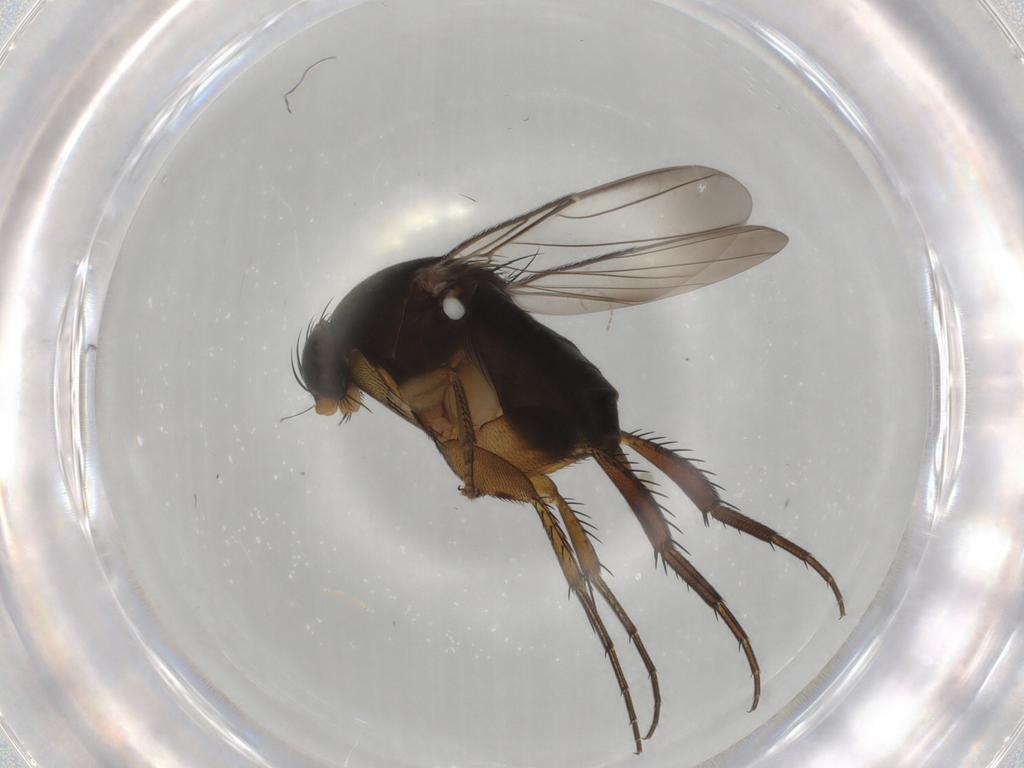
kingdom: Animalia
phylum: Arthropoda
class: Insecta
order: Diptera
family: Phoridae
